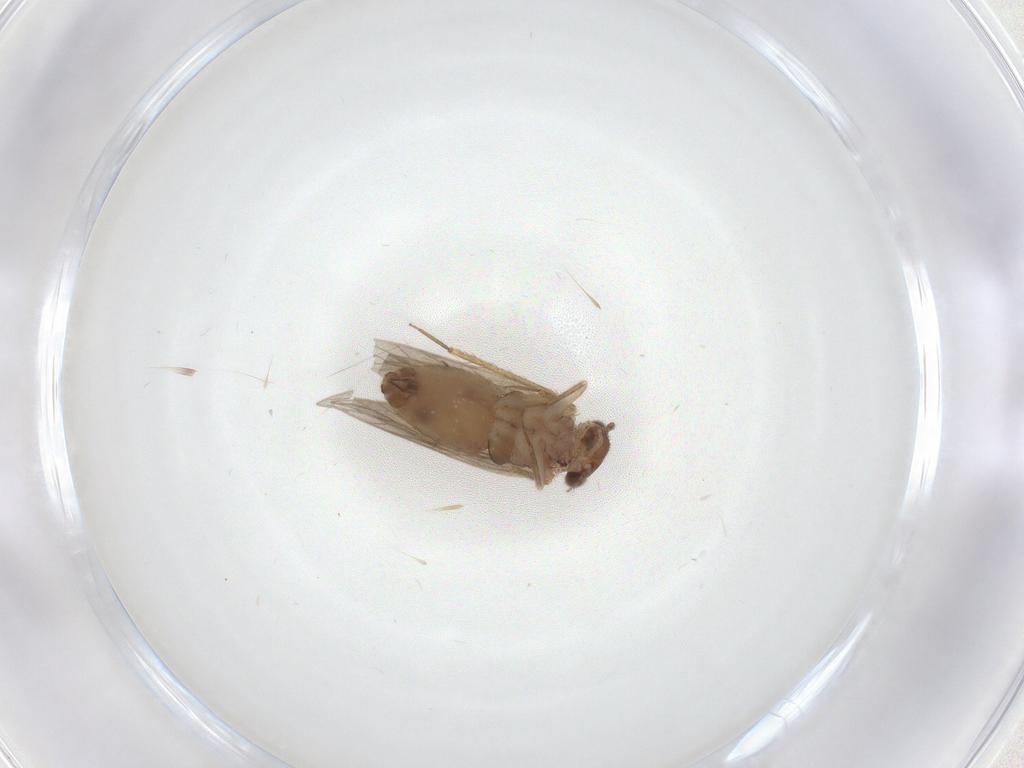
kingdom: Animalia
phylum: Arthropoda
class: Insecta
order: Psocodea
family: Lepidopsocidae
